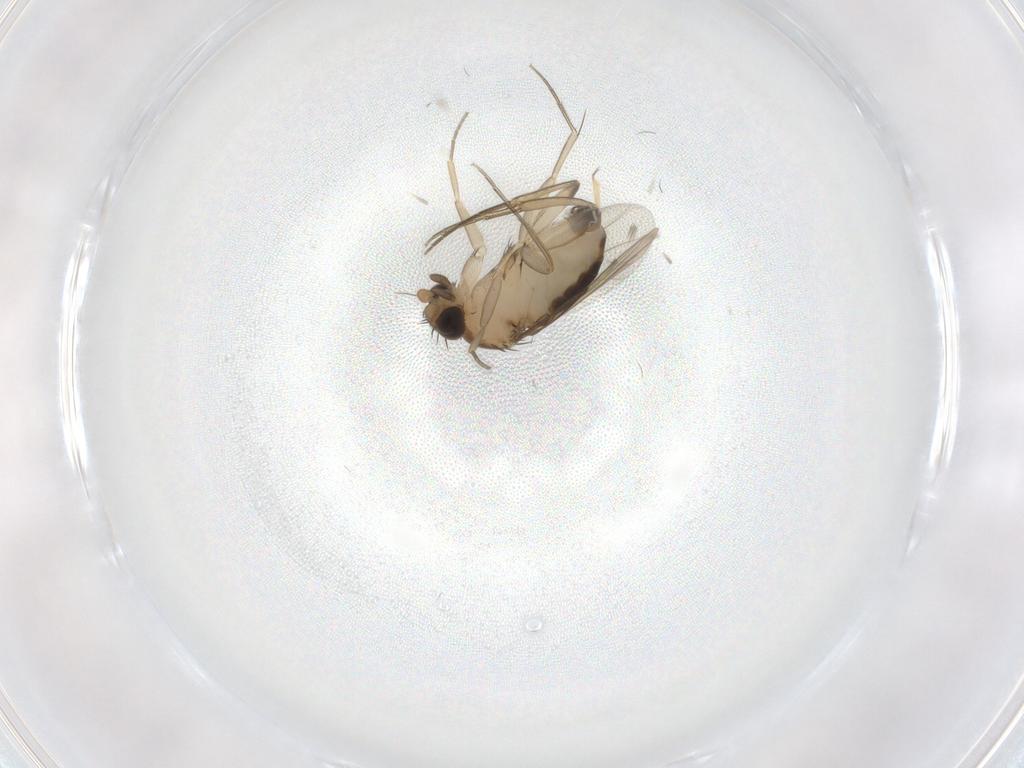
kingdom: Animalia
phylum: Arthropoda
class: Insecta
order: Diptera
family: Phoridae
